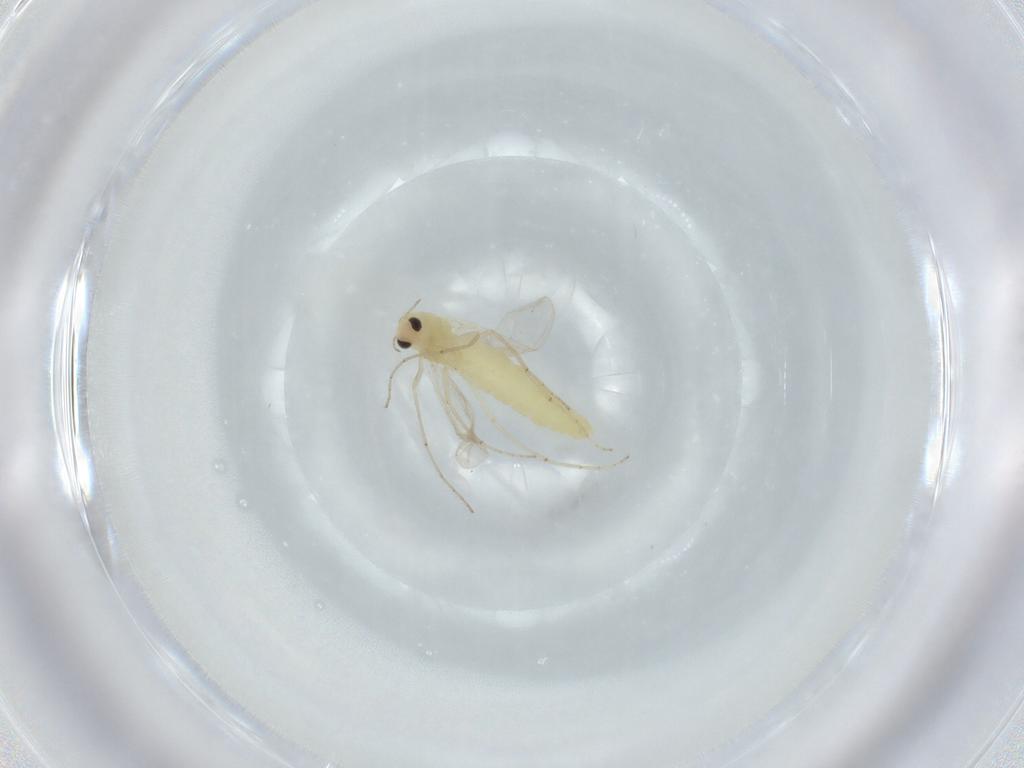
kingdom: Animalia
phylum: Arthropoda
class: Insecta
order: Diptera
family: Chironomidae
